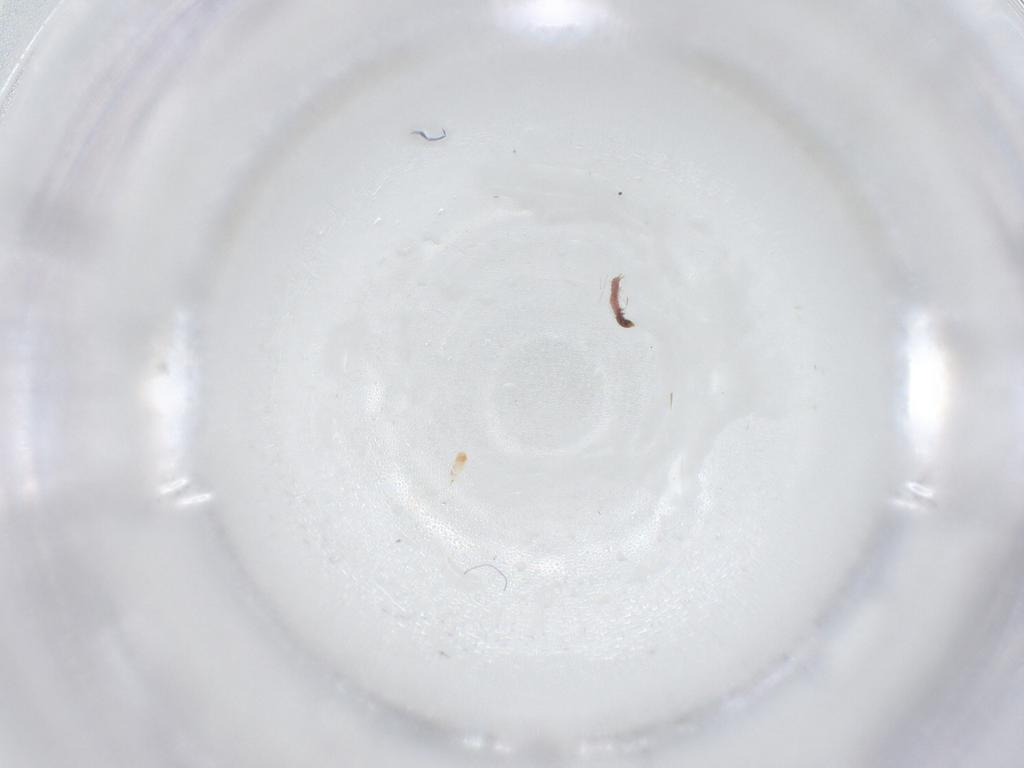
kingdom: Animalia
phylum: Arthropoda
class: Insecta
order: Lepidoptera
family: Lecithoceridae
